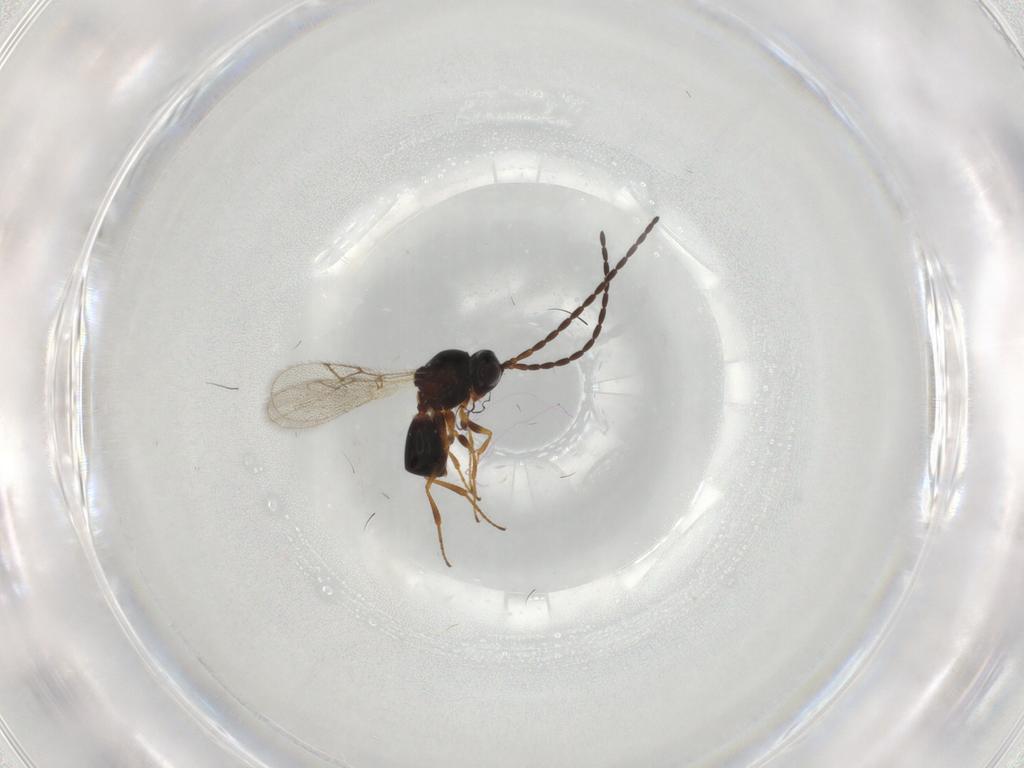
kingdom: Animalia
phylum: Arthropoda
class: Insecta
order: Hymenoptera
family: Figitidae
